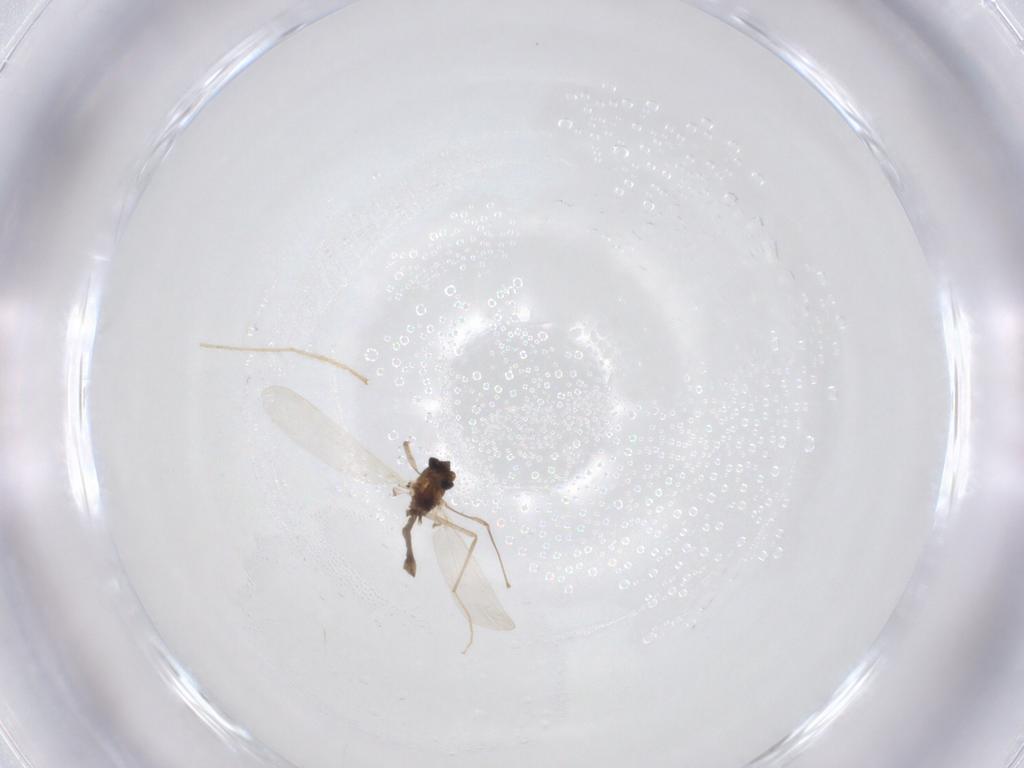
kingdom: Animalia
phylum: Arthropoda
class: Insecta
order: Diptera
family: Chironomidae
